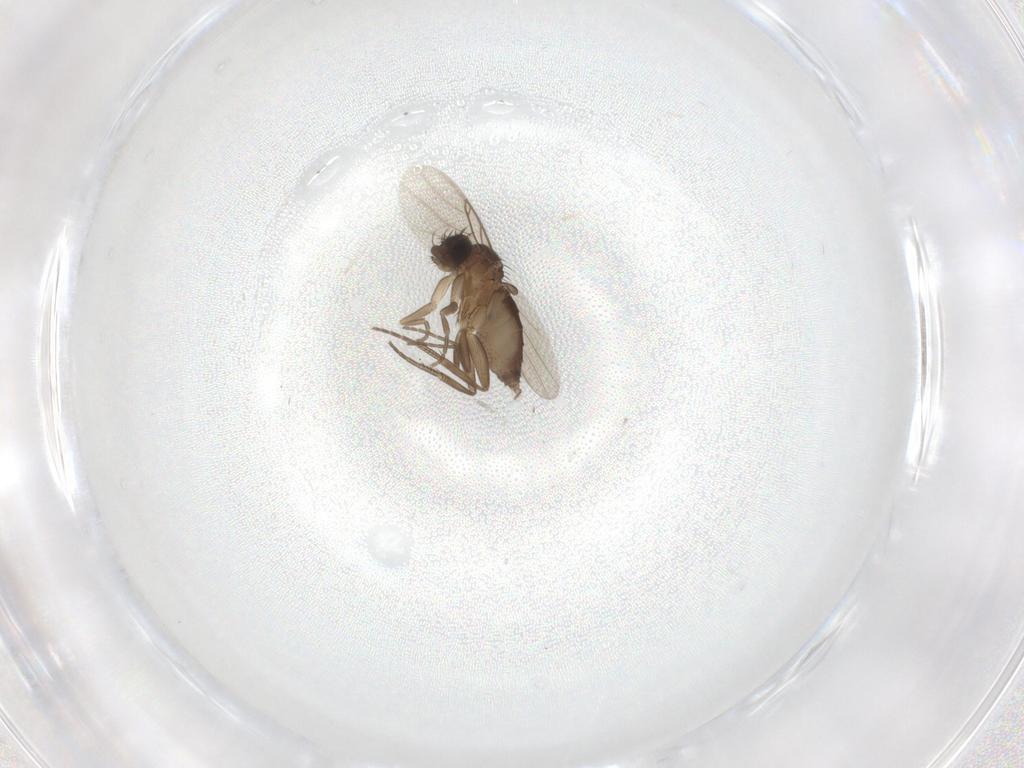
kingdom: Animalia
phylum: Arthropoda
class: Insecta
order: Diptera
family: Phoridae
